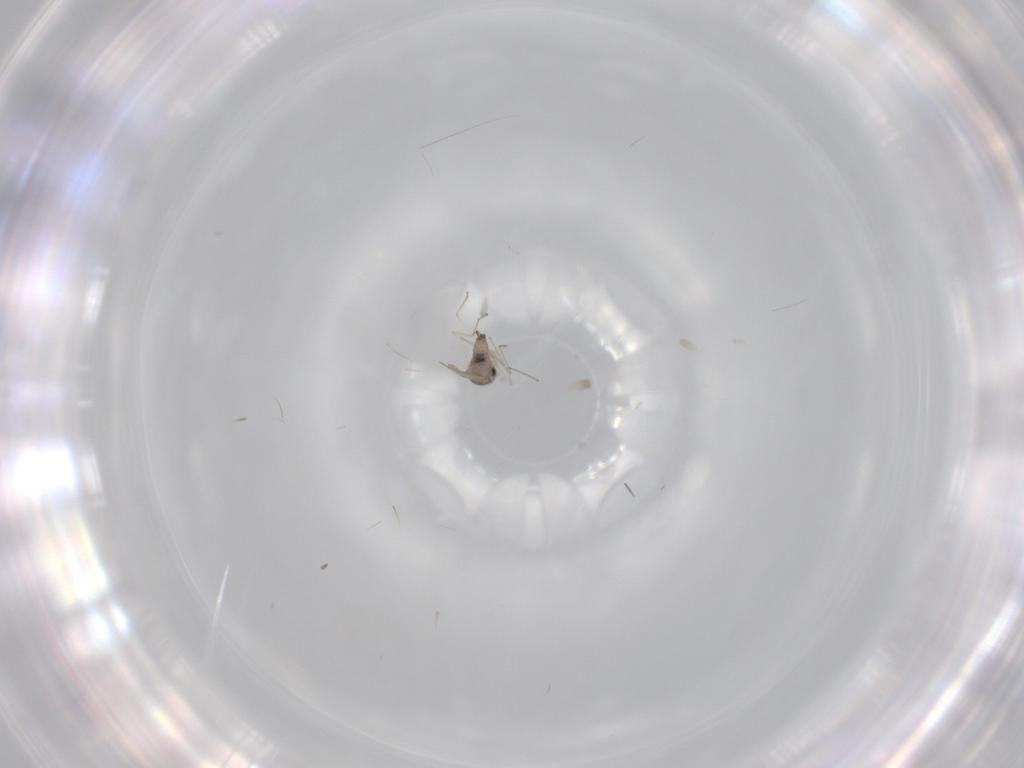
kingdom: Animalia
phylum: Arthropoda
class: Insecta
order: Diptera
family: Cecidomyiidae
